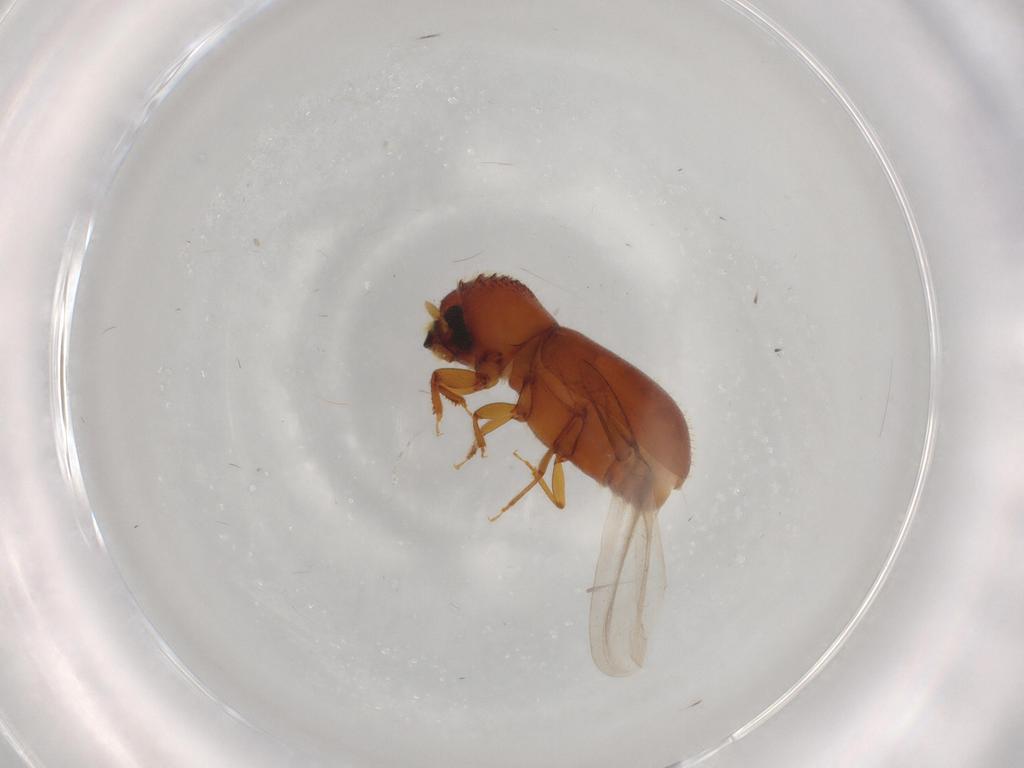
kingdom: Animalia
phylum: Arthropoda
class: Insecta
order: Coleoptera
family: Curculionidae
